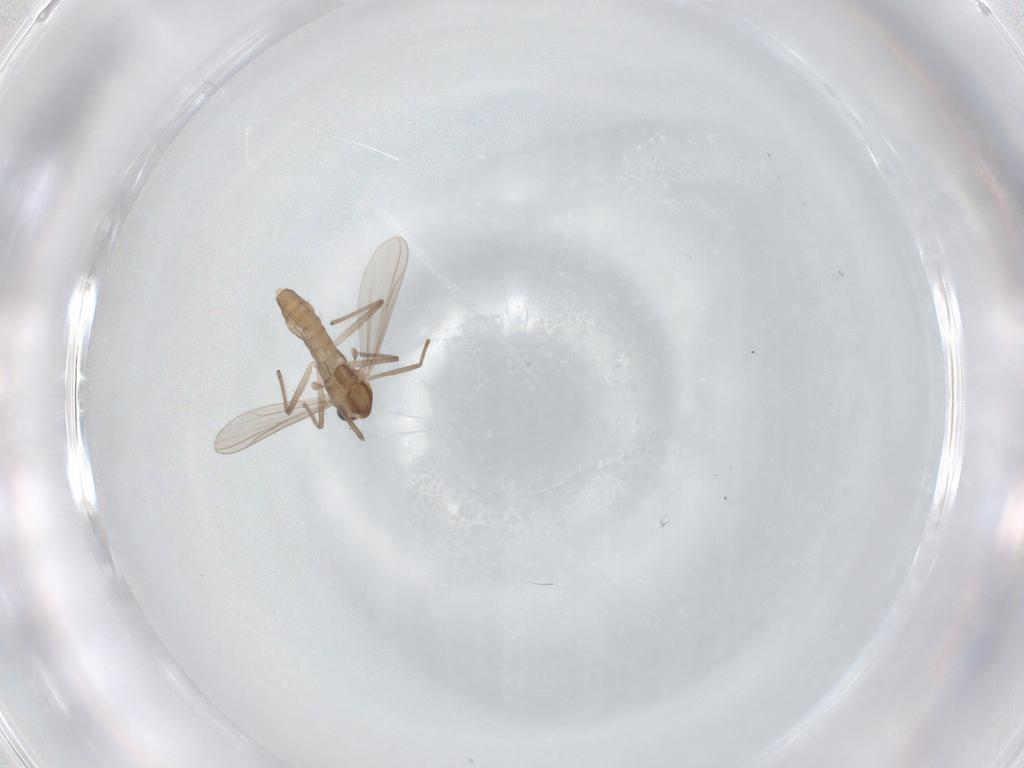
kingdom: Animalia
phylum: Arthropoda
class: Insecta
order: Diptera
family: Chironomidae
